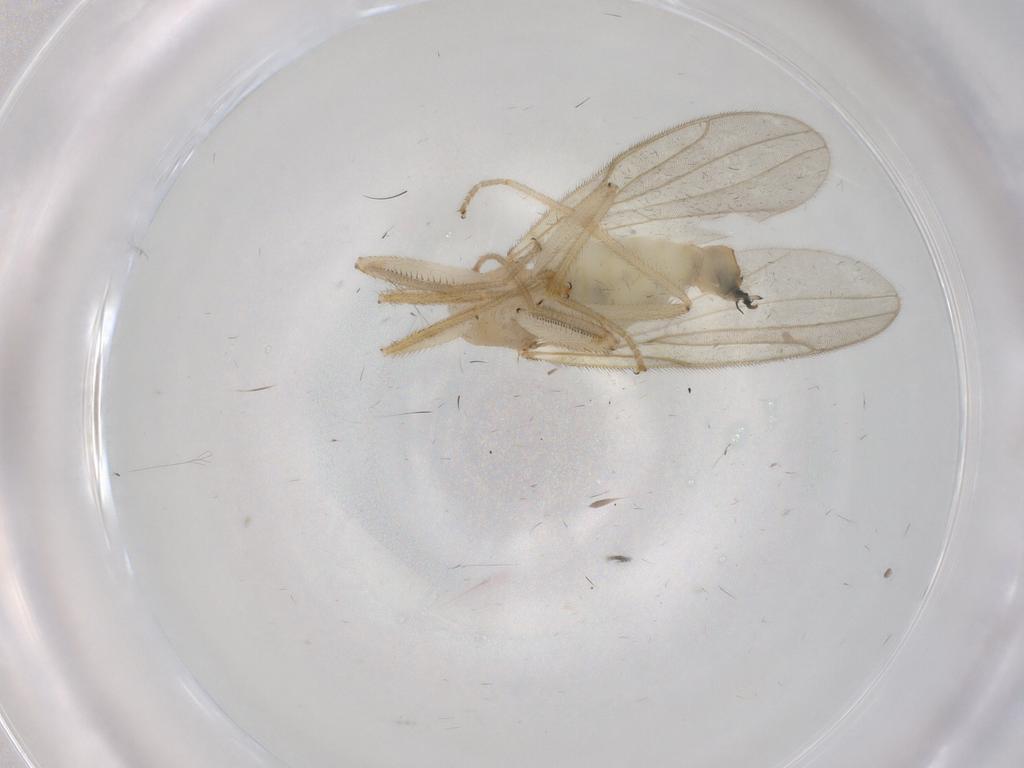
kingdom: Animalia
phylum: Arthropoda
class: Insecta
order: Diptera
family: Hybotidae
